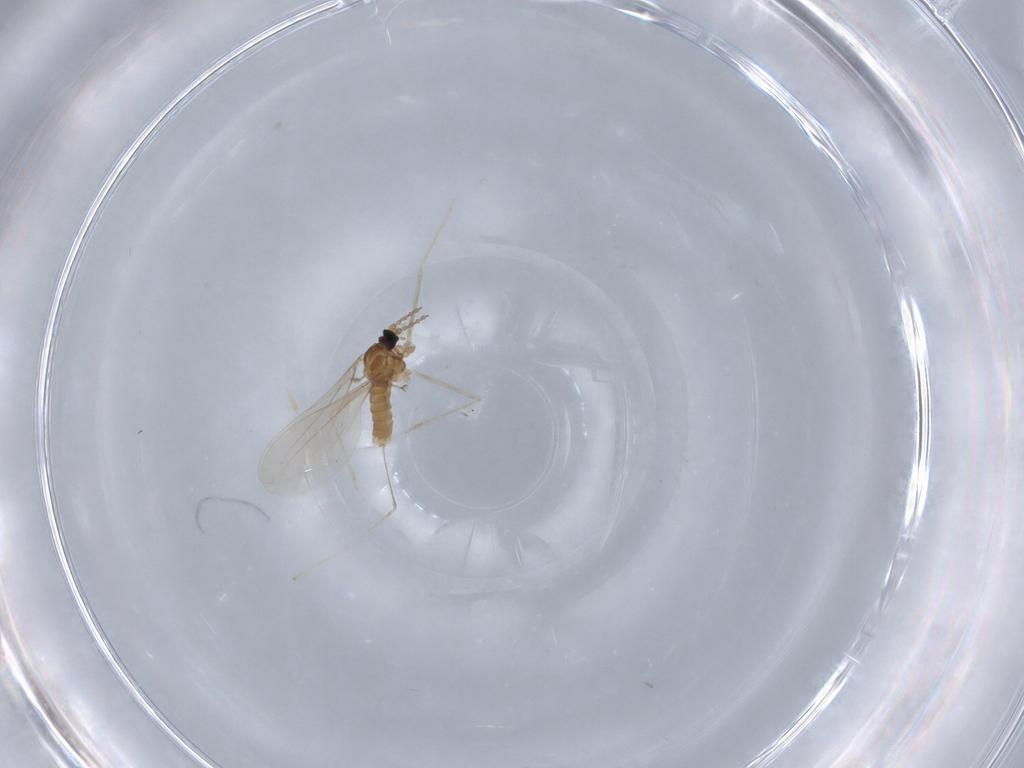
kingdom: Animalia
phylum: Arthropoda
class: Insecta
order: Diptera
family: Cecidomyiidae
